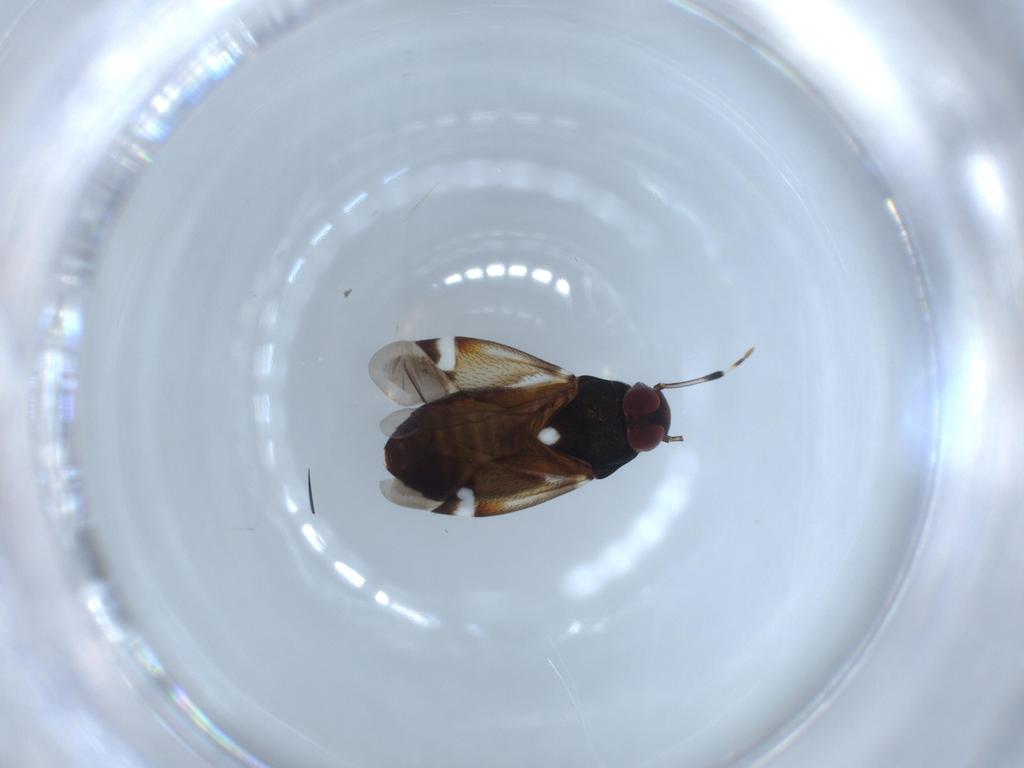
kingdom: Animalia
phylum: Arthropoda
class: Insecta
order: Hemiptera
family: Miridae
